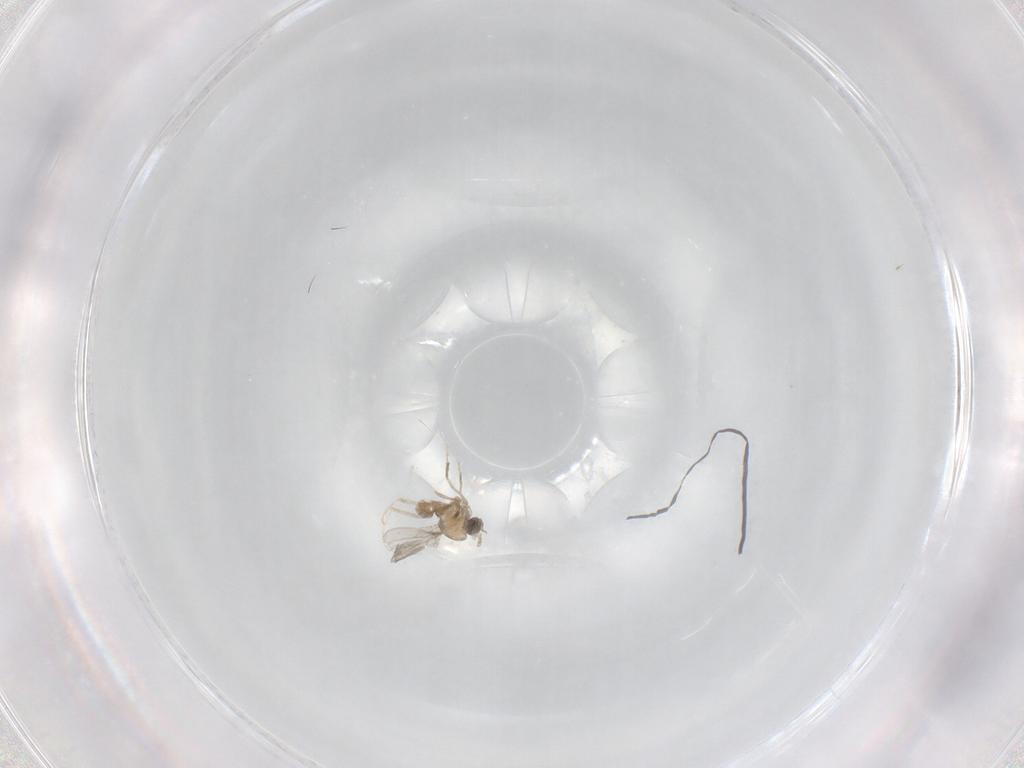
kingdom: Animalia
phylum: Arthropoda
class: Insecta
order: Diptera
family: Cecidomyiidae
